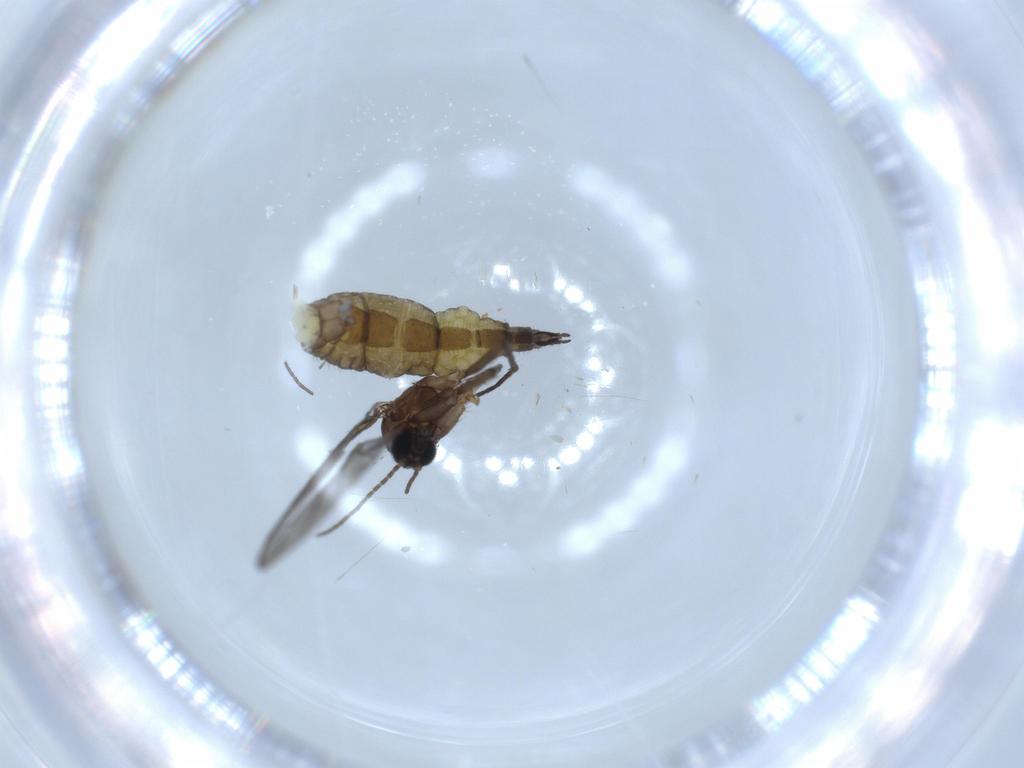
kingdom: Animalia
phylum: Arthropoda
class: Insecta
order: Diptera
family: Sciaridae
